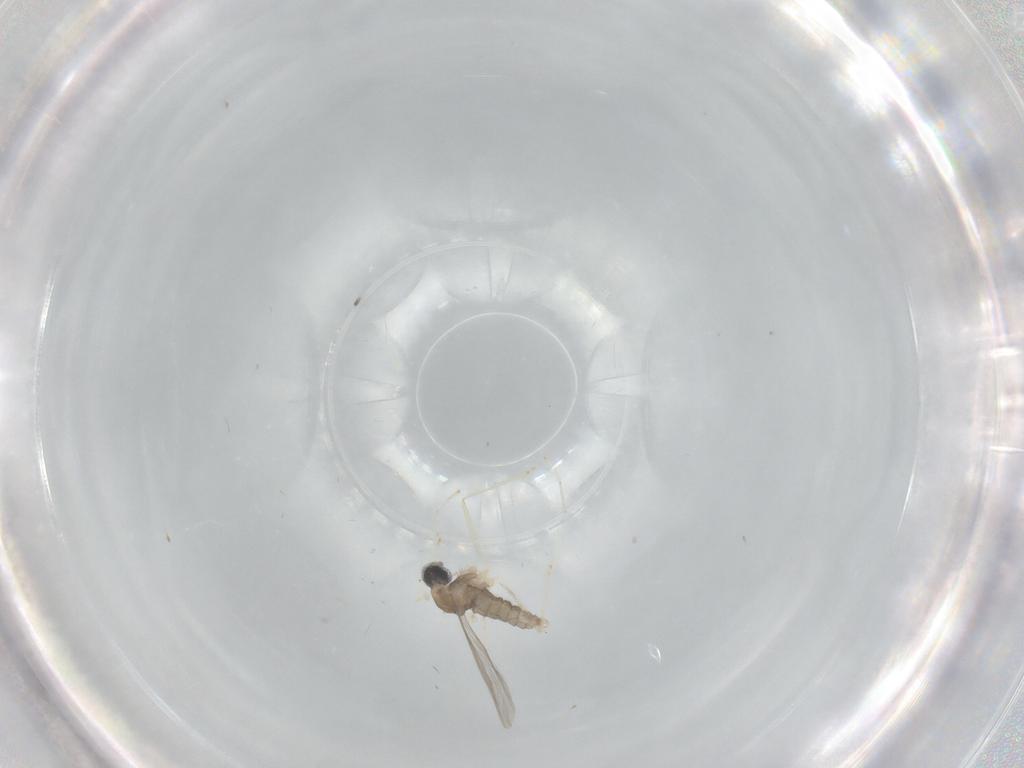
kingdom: Animalia
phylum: Arthropoda
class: Insecta
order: Diptera
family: Cecidomyiidae
